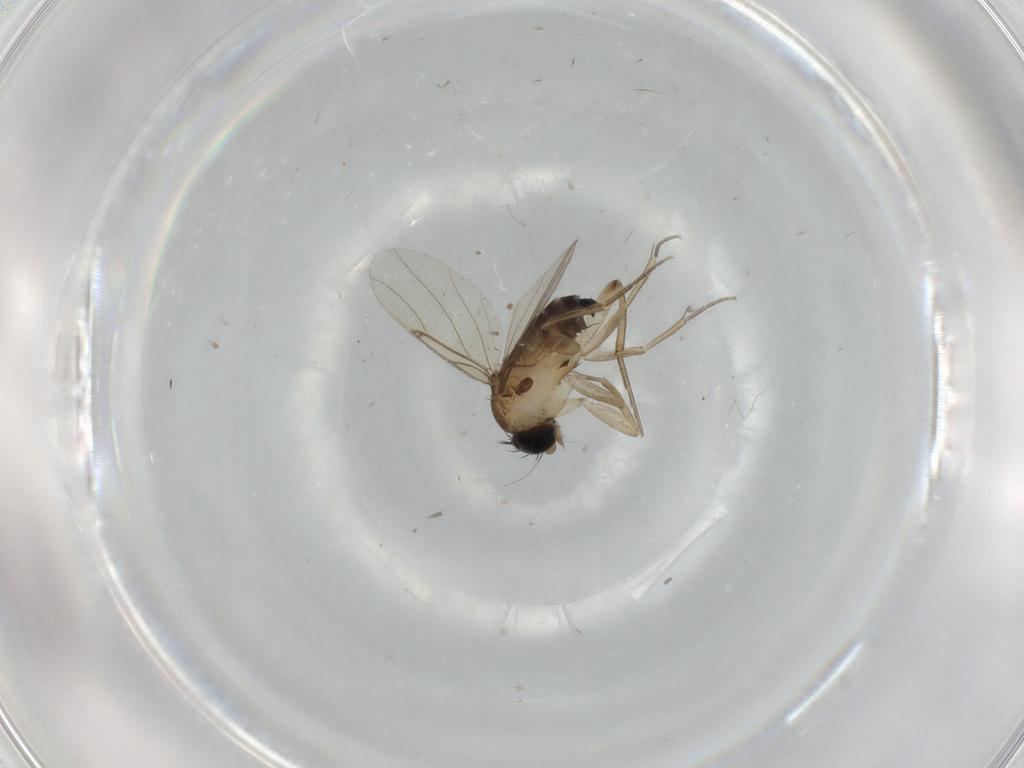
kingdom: Animalia
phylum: Arthropoda
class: Insecta
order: Diptera
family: Phoridae
